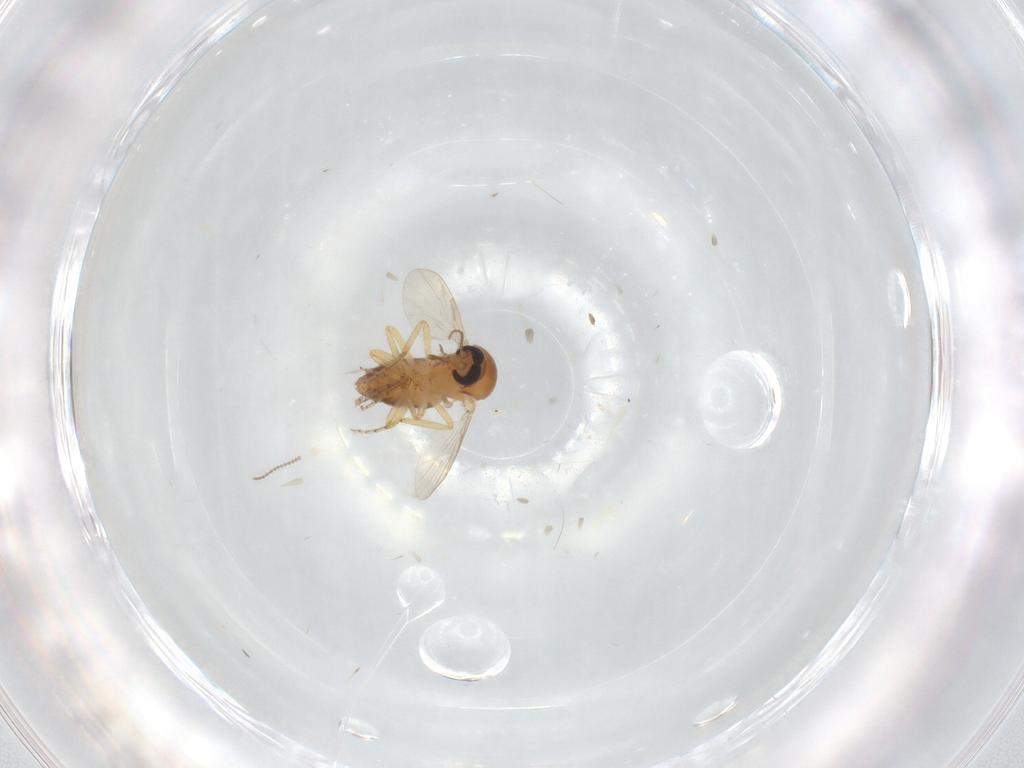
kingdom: Animalia
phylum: Arthropoda
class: Insecta
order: Diptera
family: Ceratopogonidae
